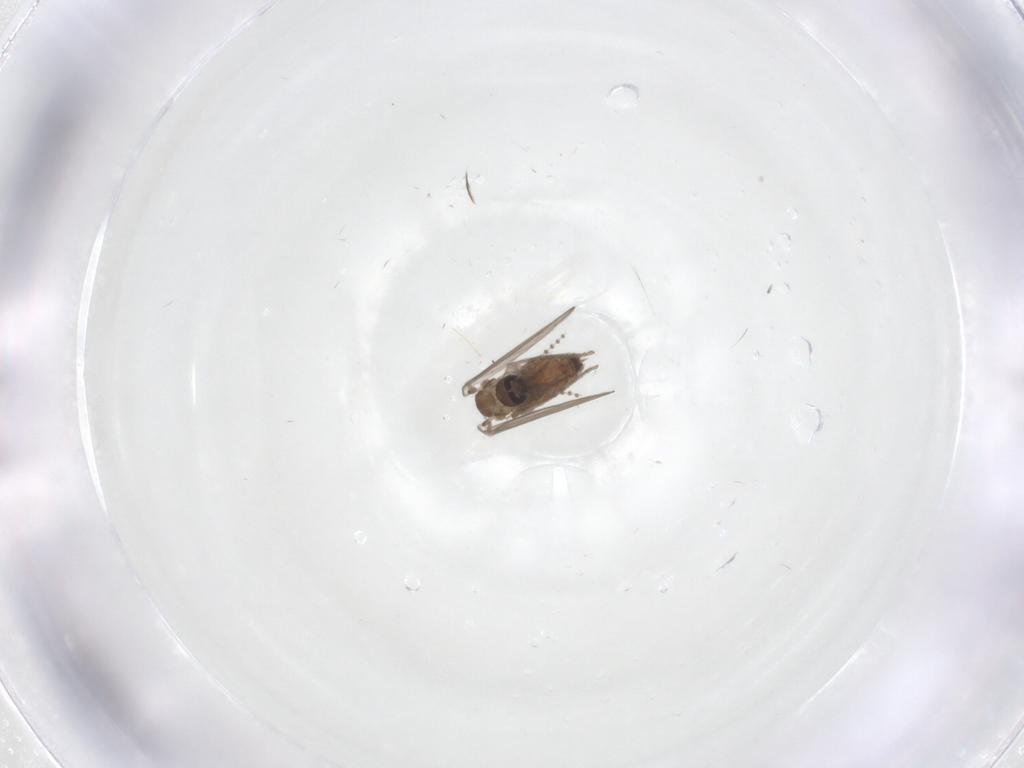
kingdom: Animalia
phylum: Arthropoda
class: Insecta
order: Diptera
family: Psychodidae
